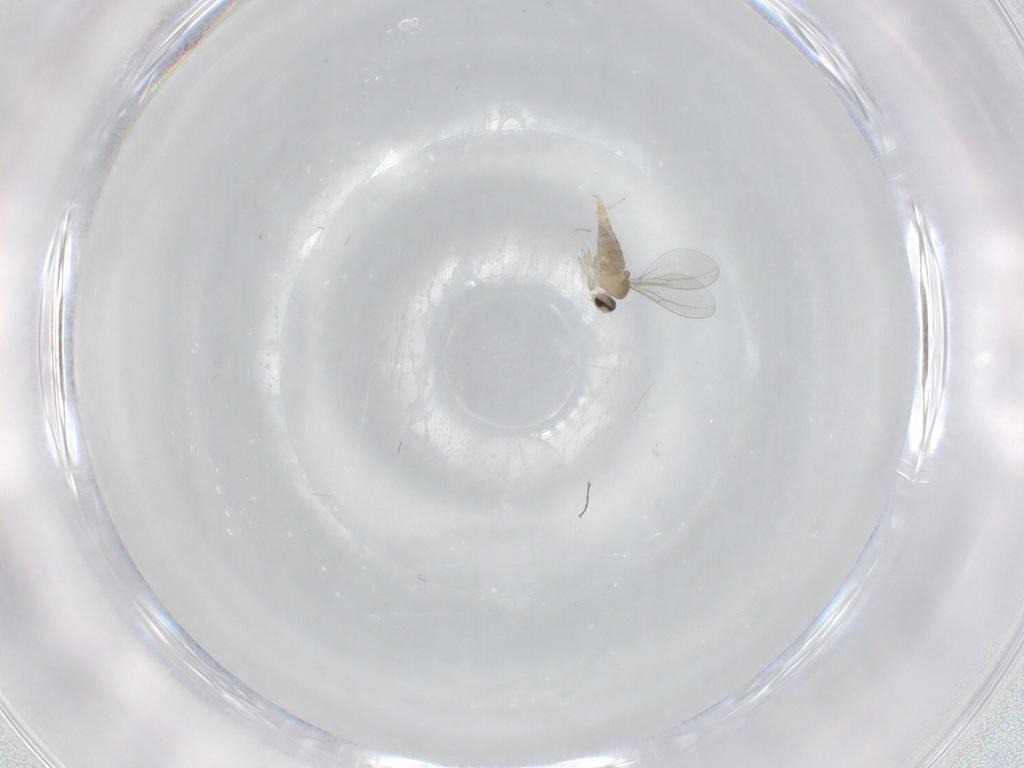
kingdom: Animalia
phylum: Arthropoda
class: Insecta
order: Diptera
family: Cecidomyiidae
